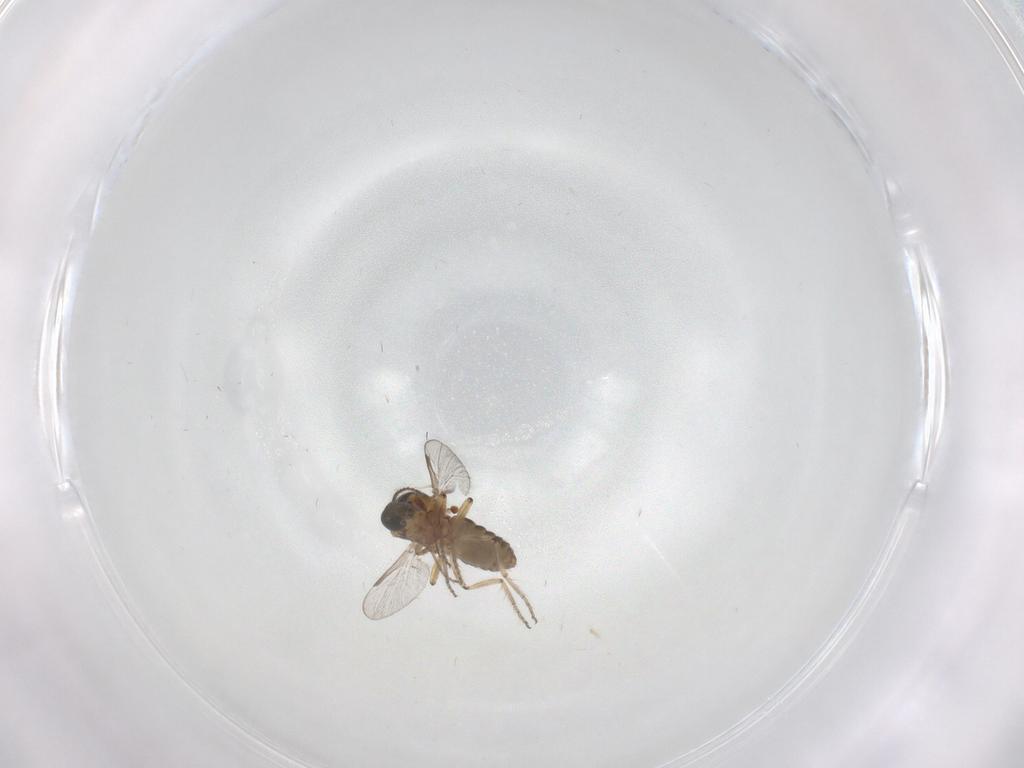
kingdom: Animalia
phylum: Arthropoda
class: Insecta
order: Diptera
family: Ceratopogonidae
